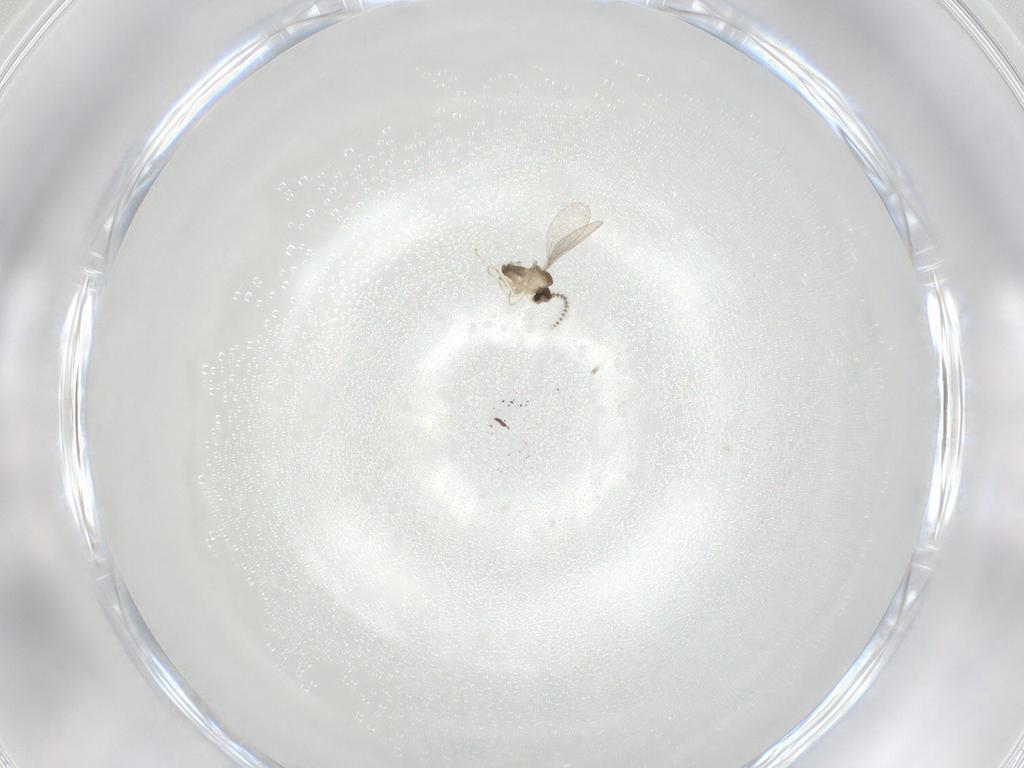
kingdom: Animalia
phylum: Arthropoda
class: Insecta
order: Diptera
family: Cecidomyiidae
